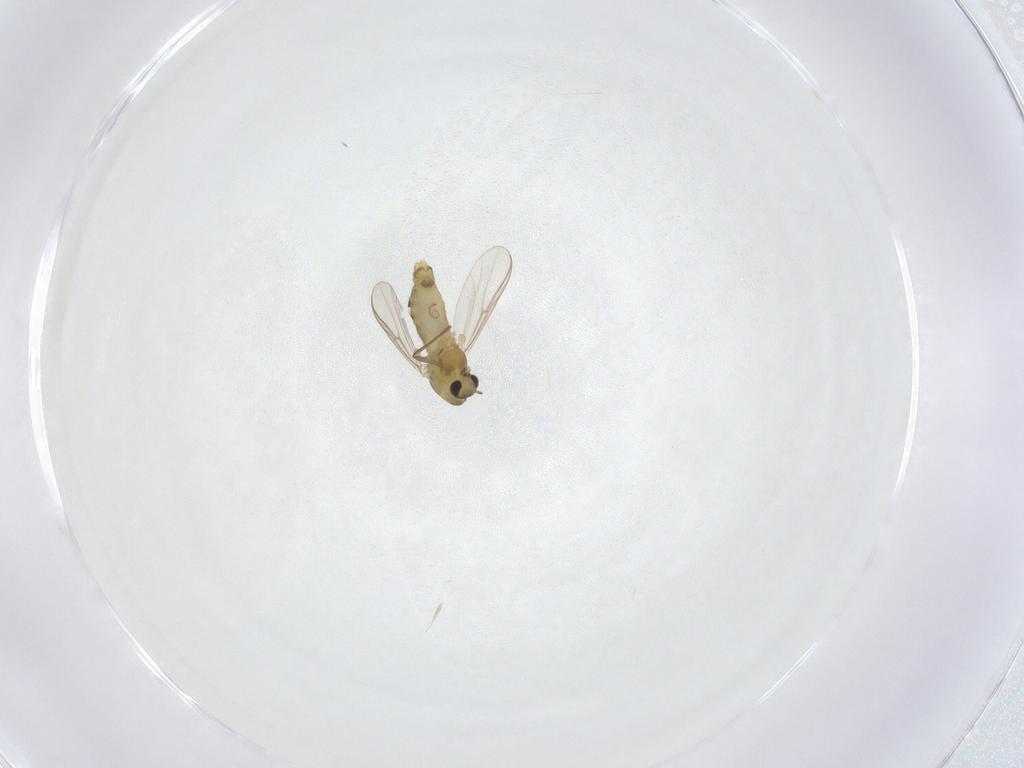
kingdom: Animalia
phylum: Arthropoda
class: Insecta
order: Diptera
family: Chironomidae
